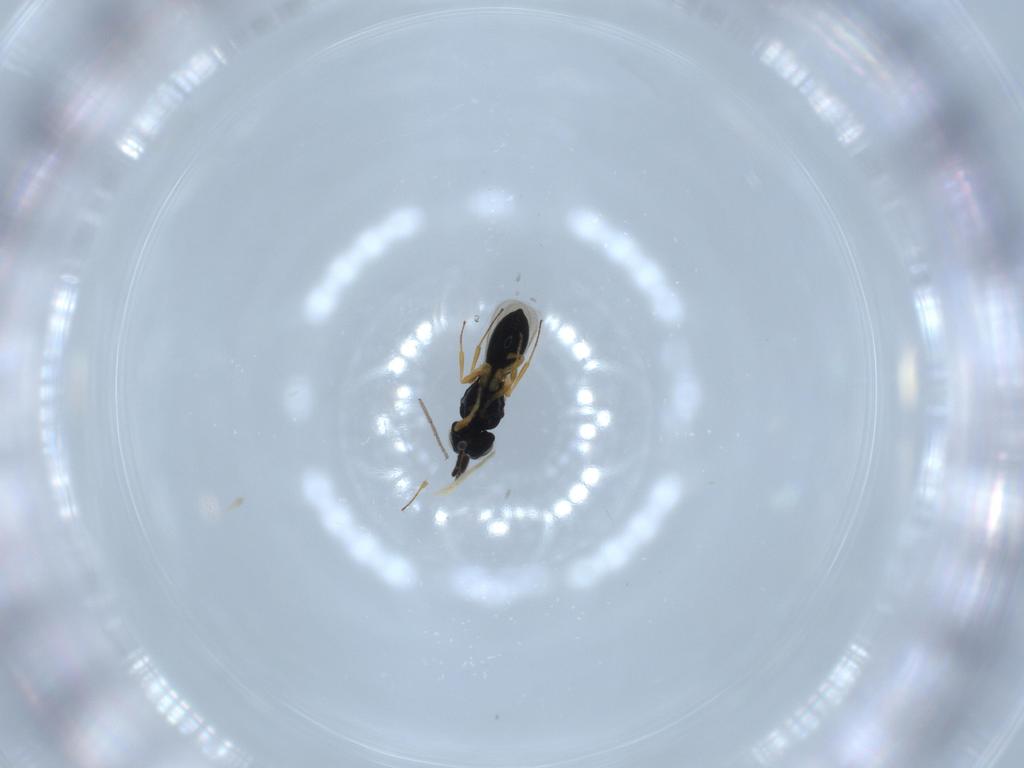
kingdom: Animalia
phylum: Arthropoda
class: Insecta
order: Hymenoptera
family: Scelionidae
